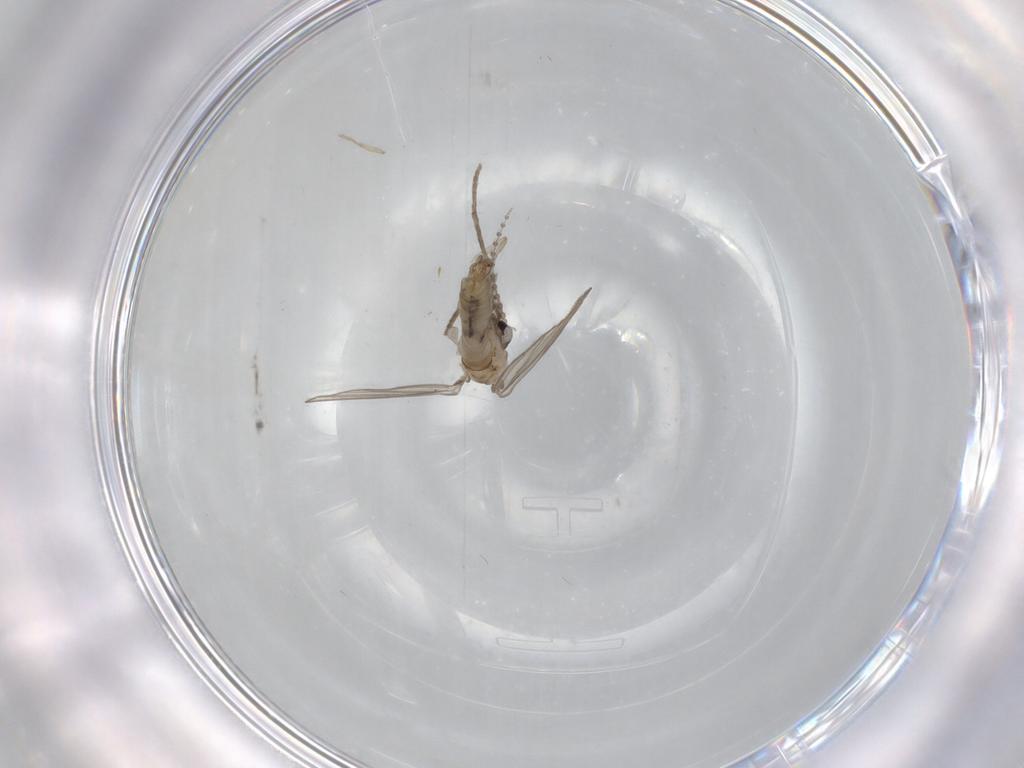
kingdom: Animalia
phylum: Arthropoda
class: Insecta
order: Diptera
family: Psychodidae
